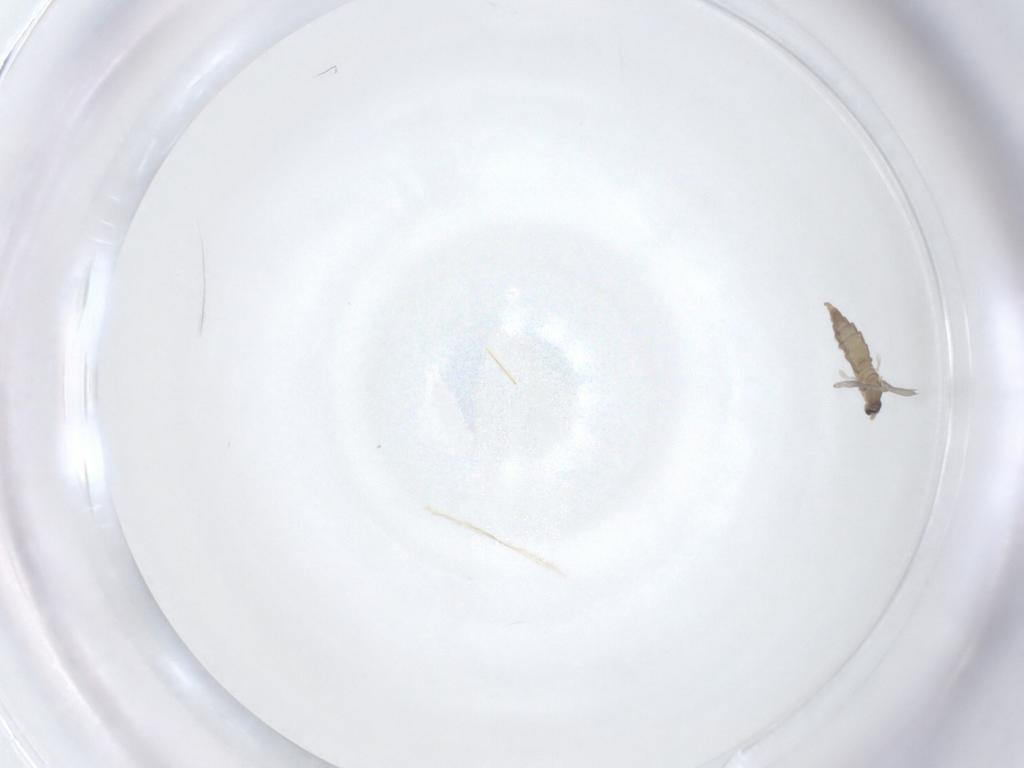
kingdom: Animalia
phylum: Arthropoda
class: Insecta
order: Diptera
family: Cecidomyiidae
